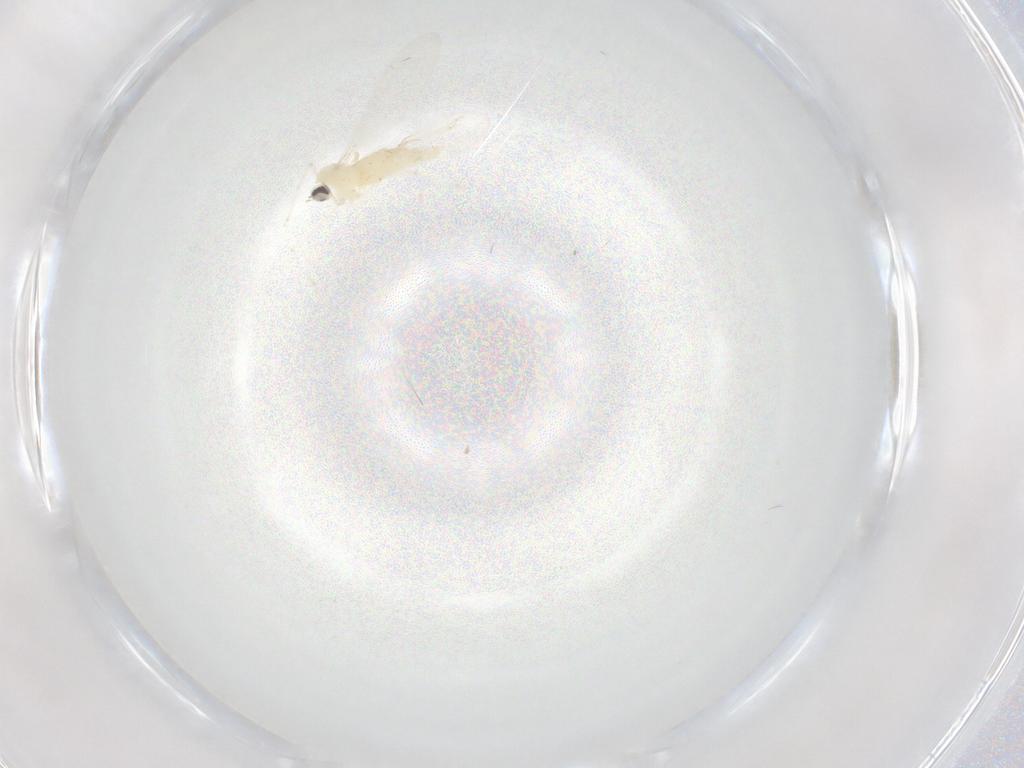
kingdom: Animalia
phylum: Arthropoda
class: Insecta
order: Diptera
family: Cecidomyiidae
